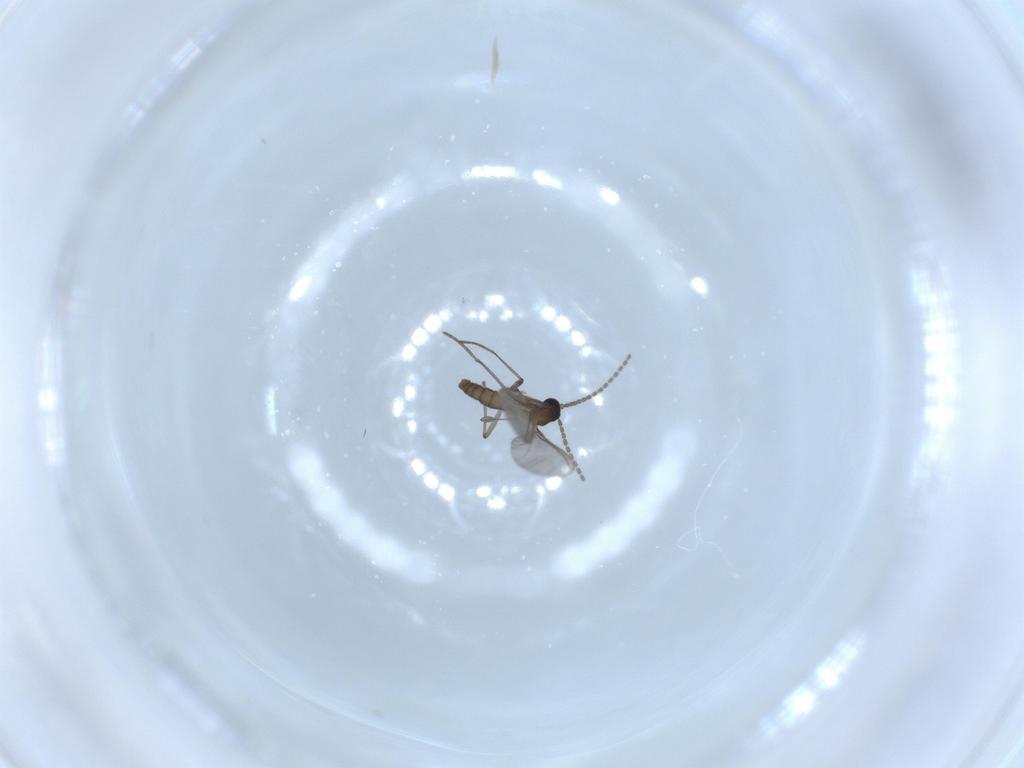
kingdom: Animalia
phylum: Arthropoda
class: Insecta
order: Diptera
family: Sciaridae
